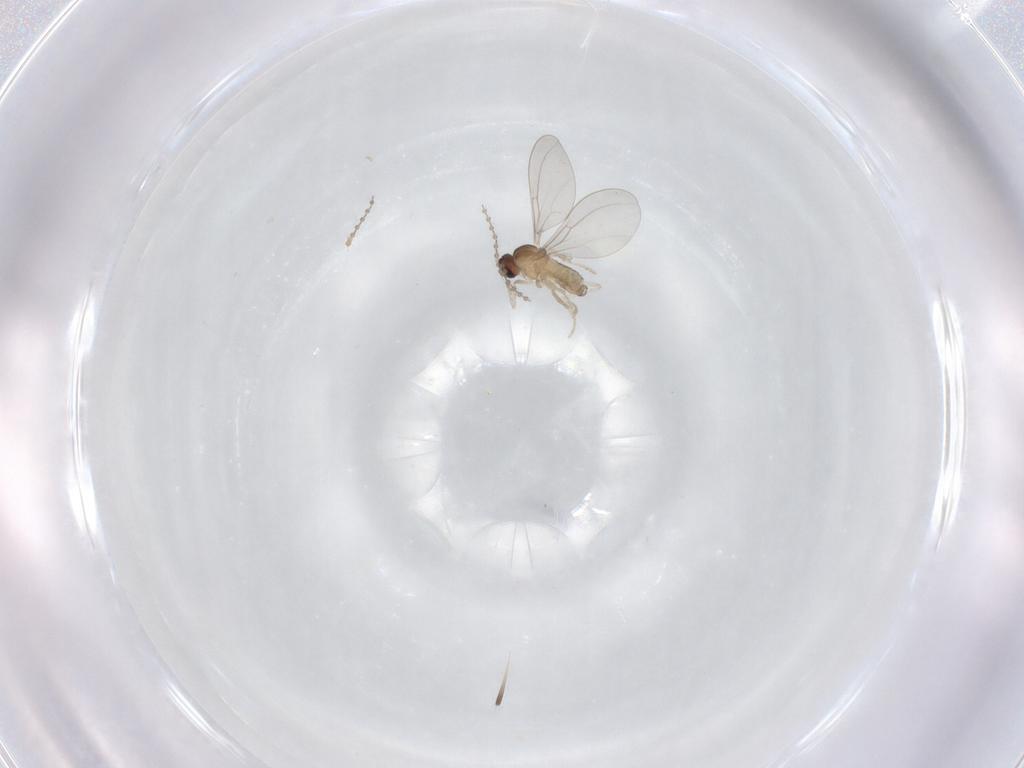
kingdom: Animalia
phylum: Arthropoda
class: Insecta
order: Diptera
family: Cecidomyiidae
